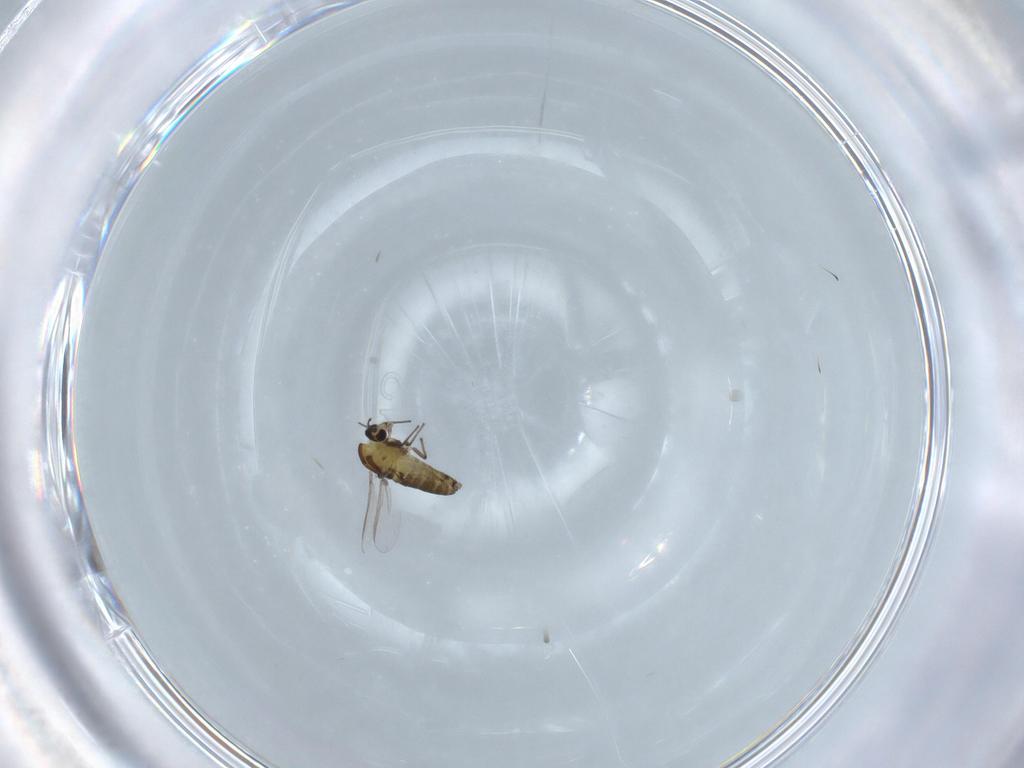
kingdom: Animalia
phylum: Arthropoda
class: Insecta
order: Diptera
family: Chironomidae
